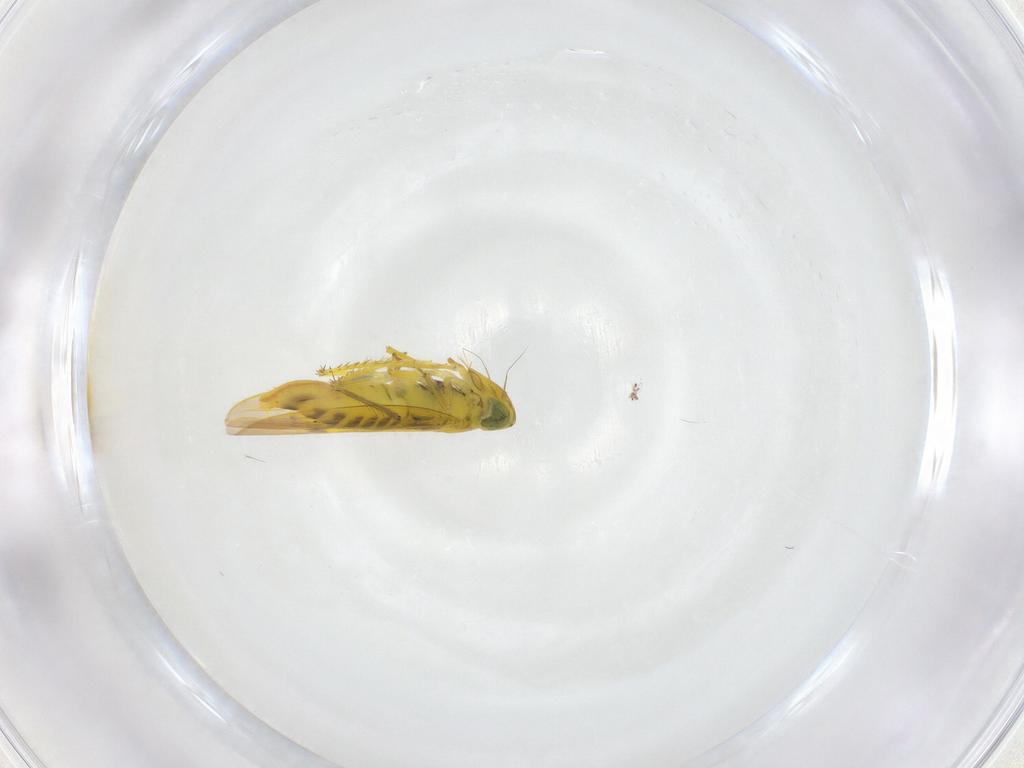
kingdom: Animalia
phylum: Arthropoda
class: Insecta
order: Hemiptera
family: Cicadellidae
